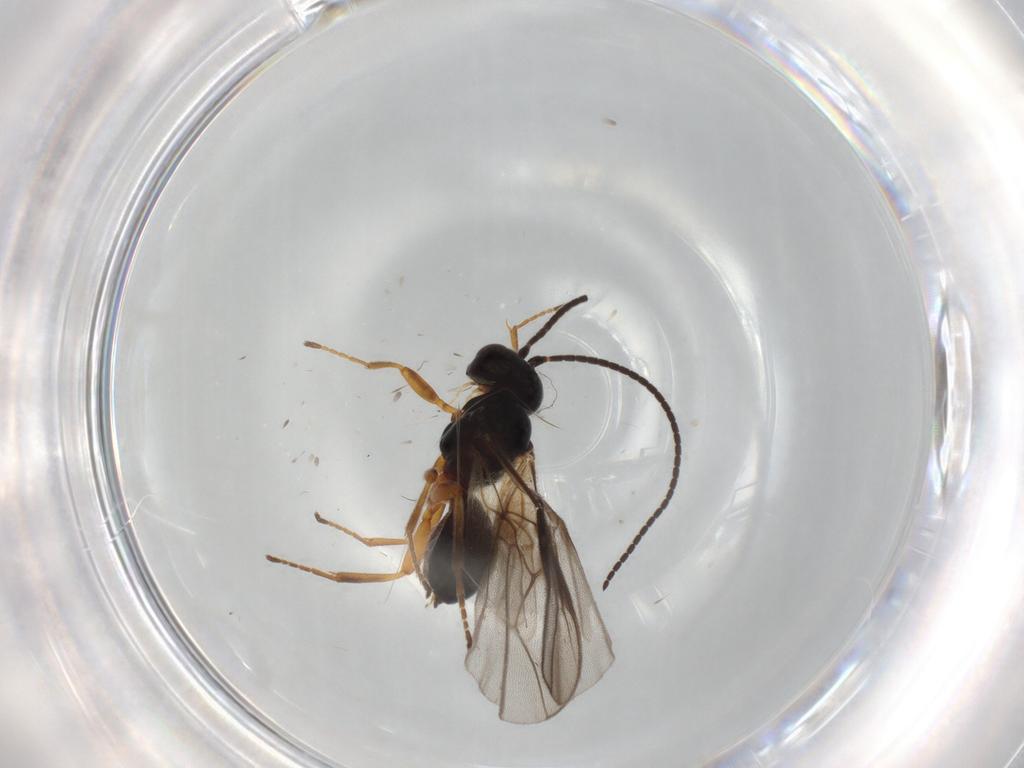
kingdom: Animalia
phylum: Arthropoda
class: Insecta
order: Hymenoptera
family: Braconidae
